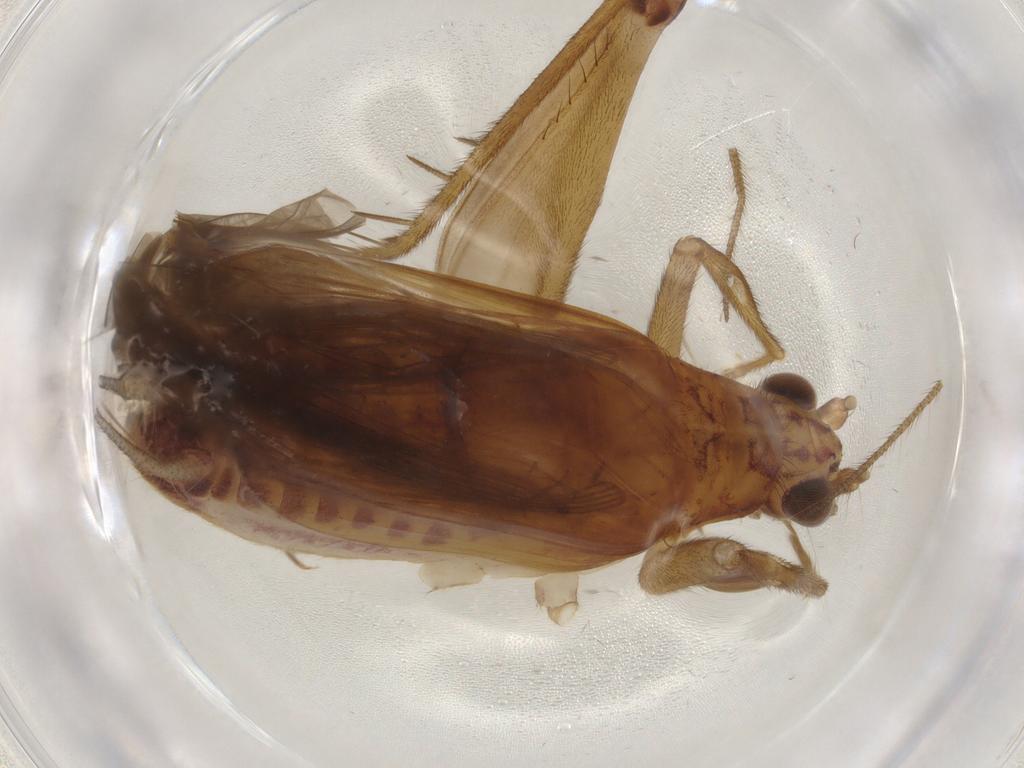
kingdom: Animalia
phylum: Arthropoda
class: Insecta
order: Orthoptera
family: Trigonidiidae
